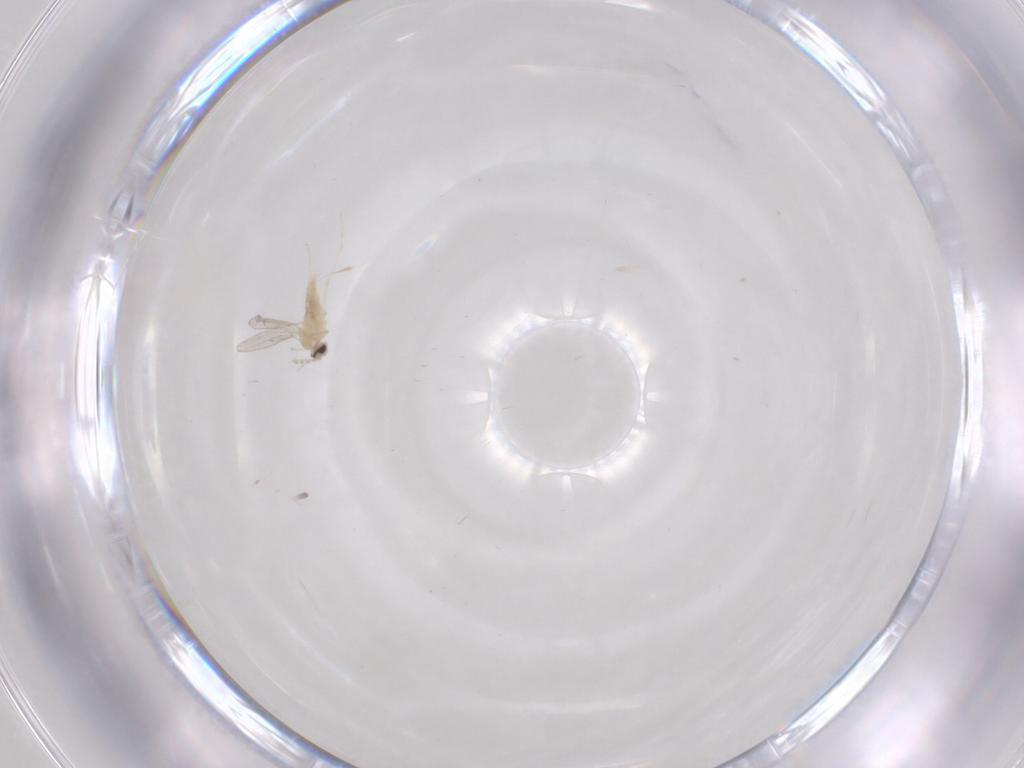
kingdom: Animalia
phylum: Arthropoda
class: Insecta
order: Diptera
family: Cecidomyiidae
